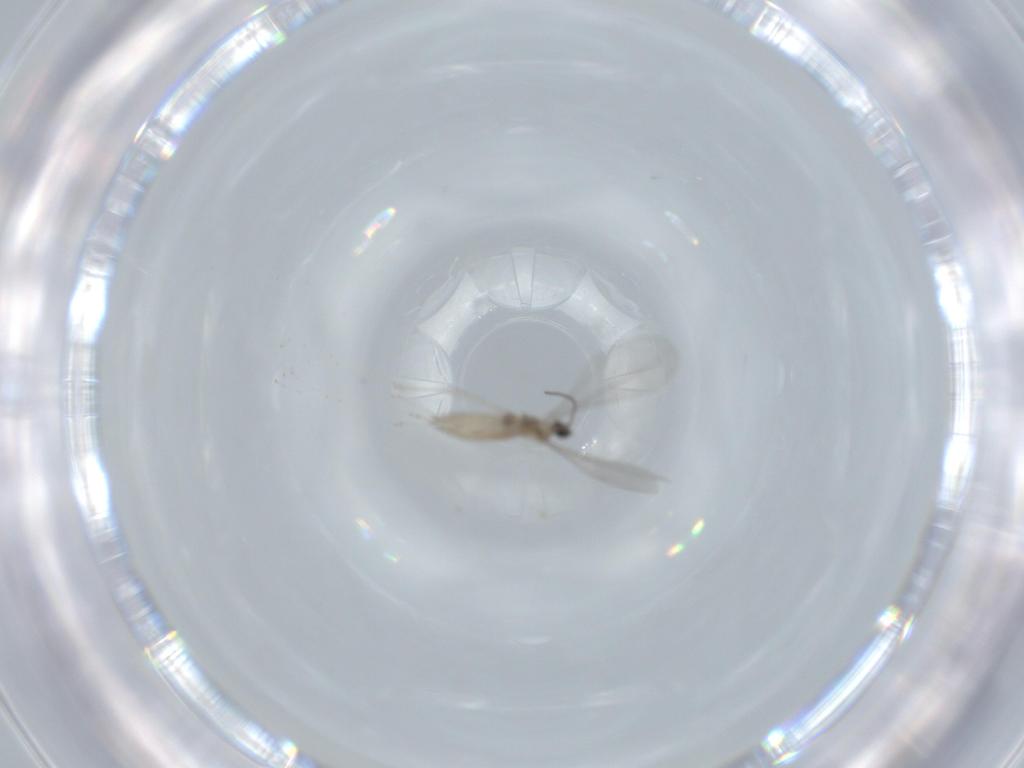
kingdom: Animalia
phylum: Arthropoda
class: Insecta
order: Diptera
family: Cecidomyiidae
